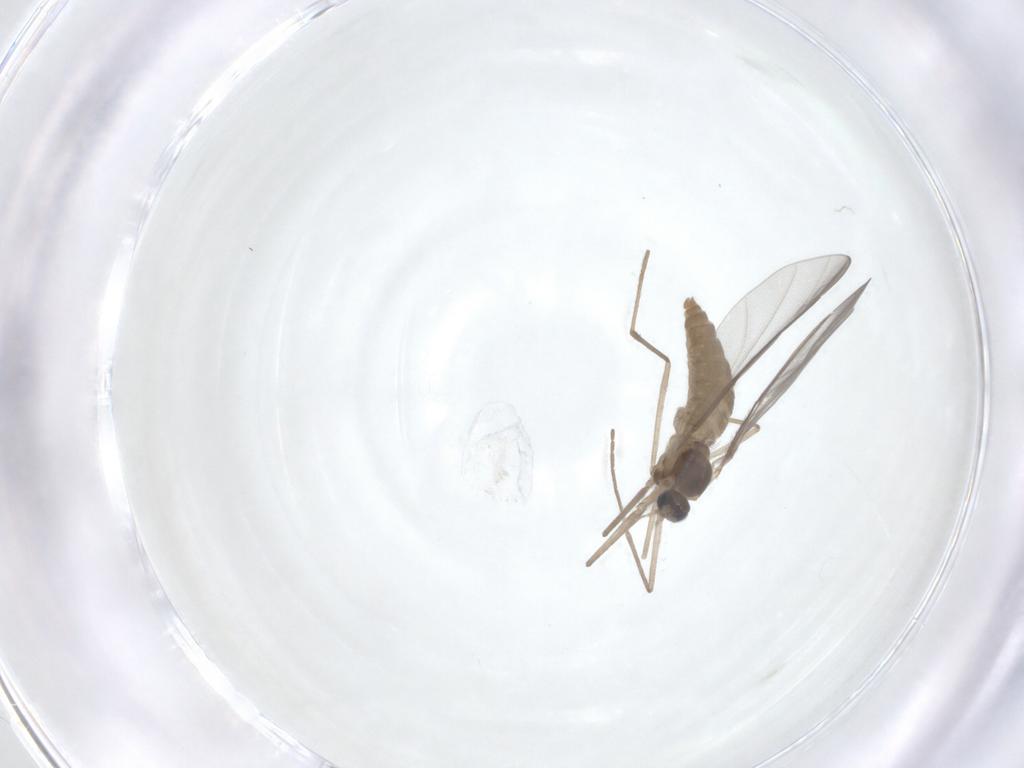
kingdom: Animalia
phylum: Arthropoda
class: Insecta
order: Diptera
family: Cecidomyiidae
